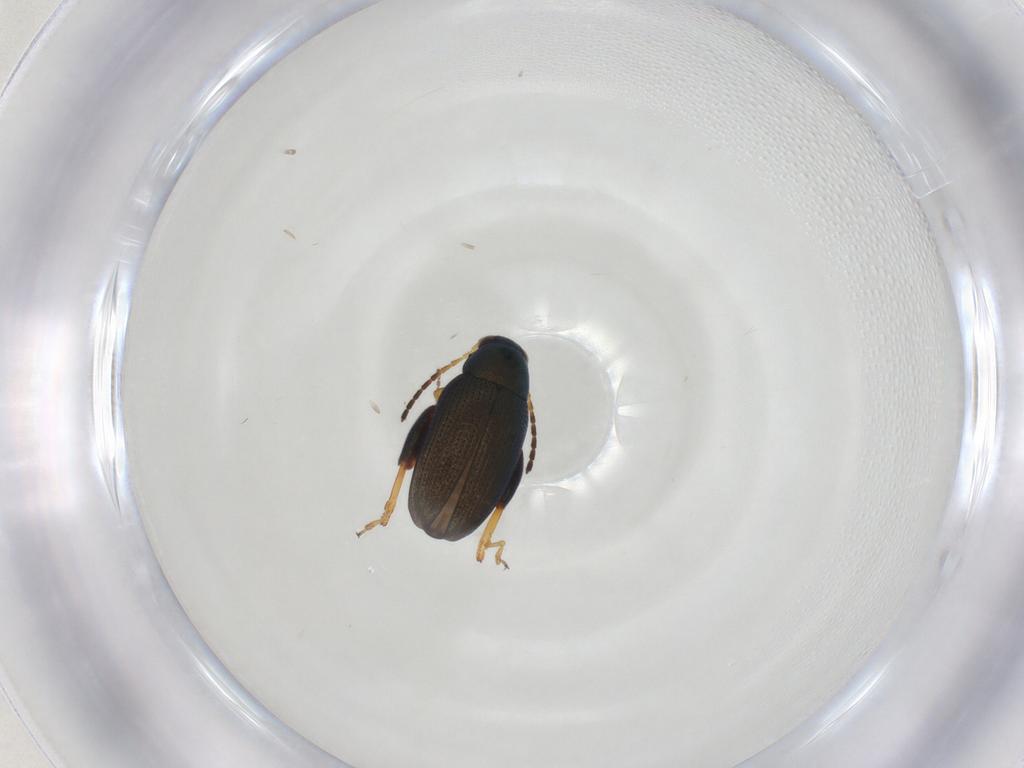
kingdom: Animalia
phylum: Arthropoda
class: Insecta
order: Coleoptera
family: Chrysomelidae
